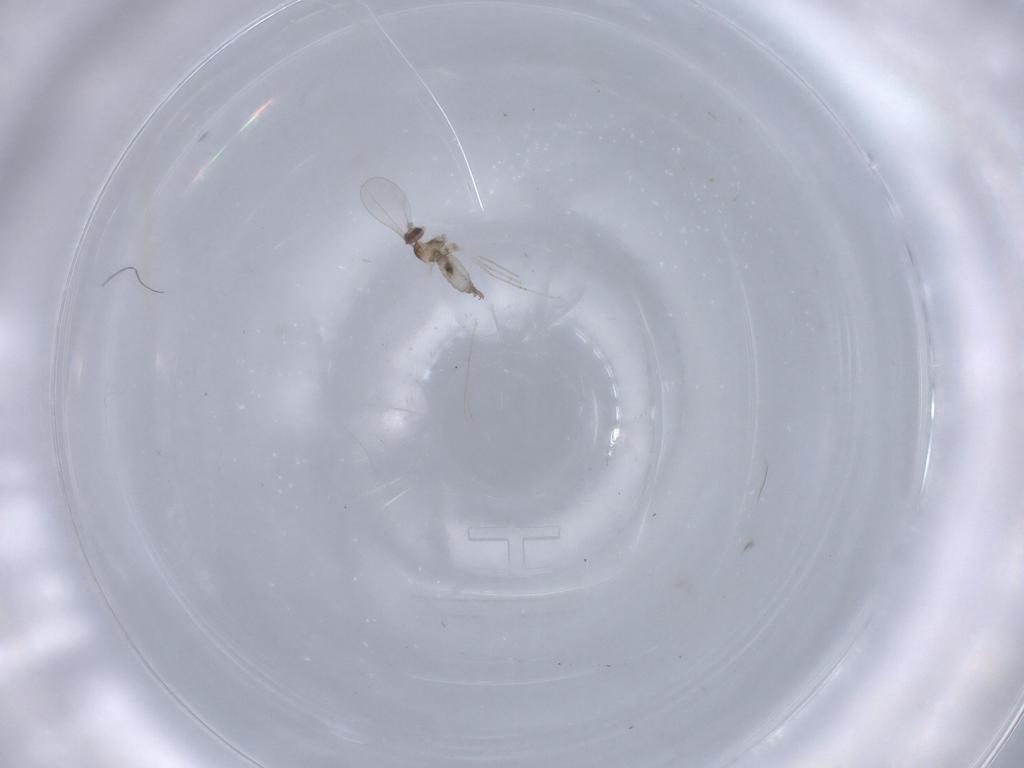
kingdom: Animalia
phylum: Arthropoda
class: Insecta
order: Diptera
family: Cecidomyiidae
